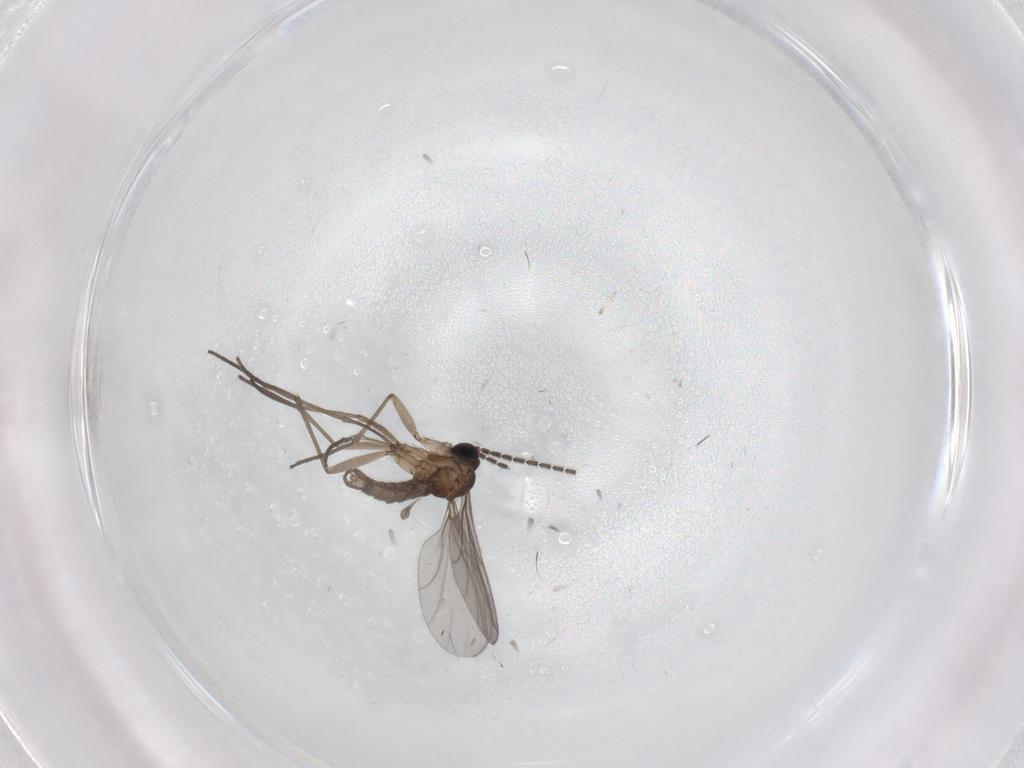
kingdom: Animalia
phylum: Arthropoda
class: Insecta
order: Diptera
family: Sciaridae
